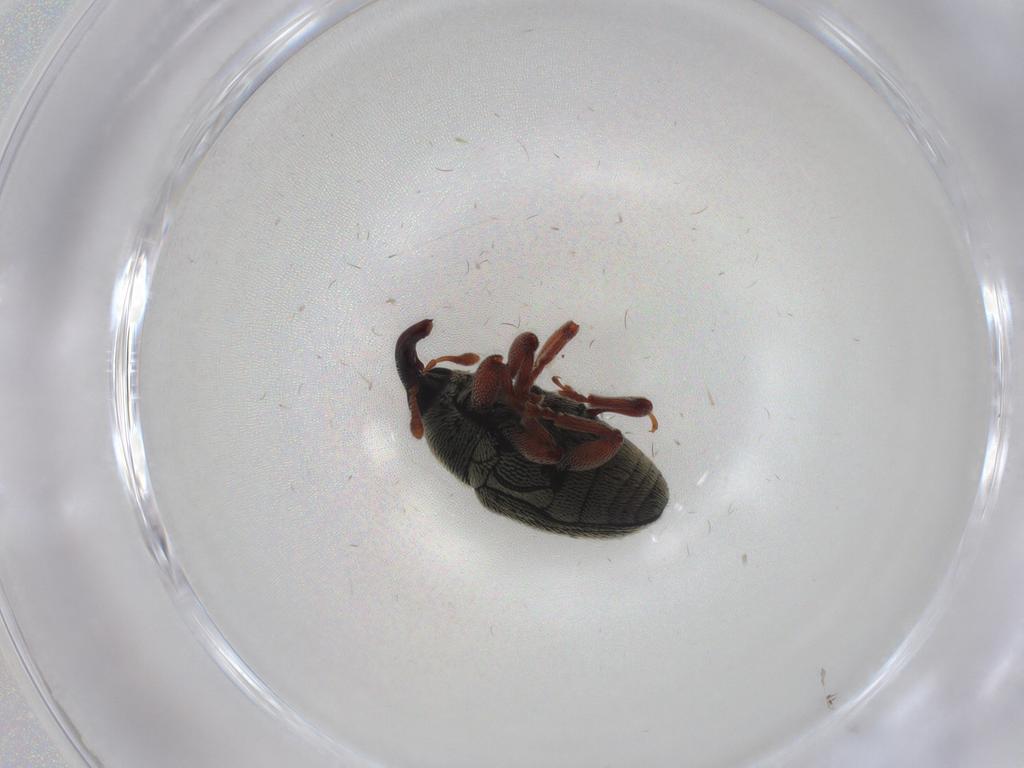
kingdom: Animalia
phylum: Arthropoda
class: Insecta
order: Coleoptera
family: Curculionidae
